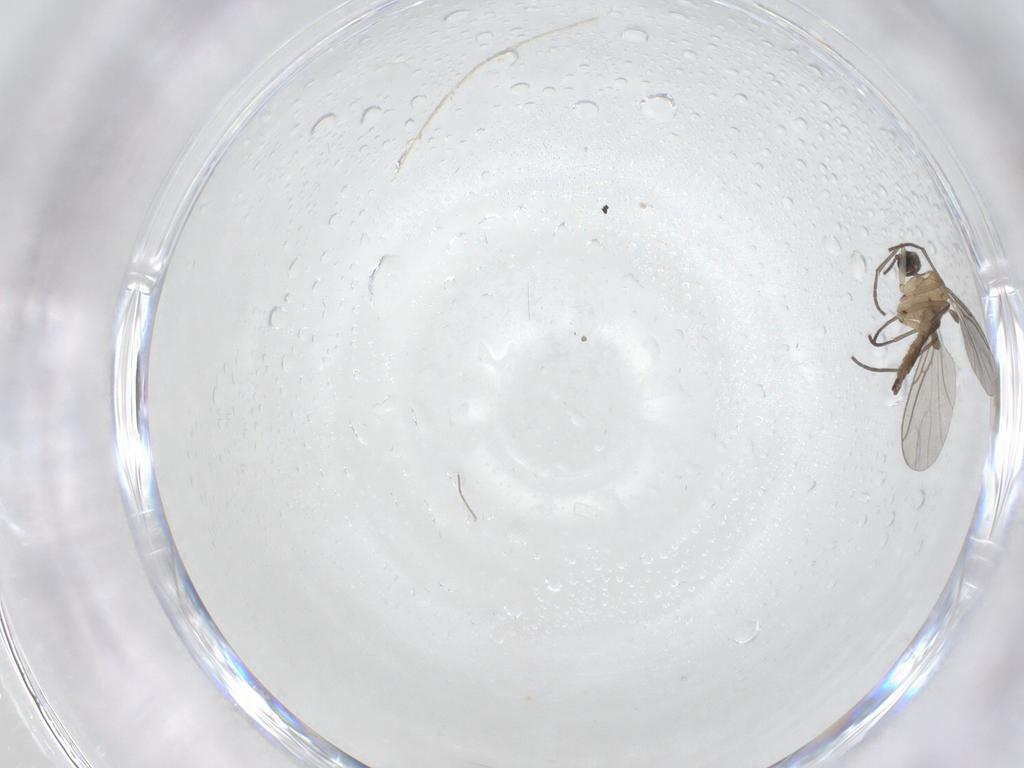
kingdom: Animalia
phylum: Arthropoda
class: Insecta
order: Diptera
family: Sciaridae
